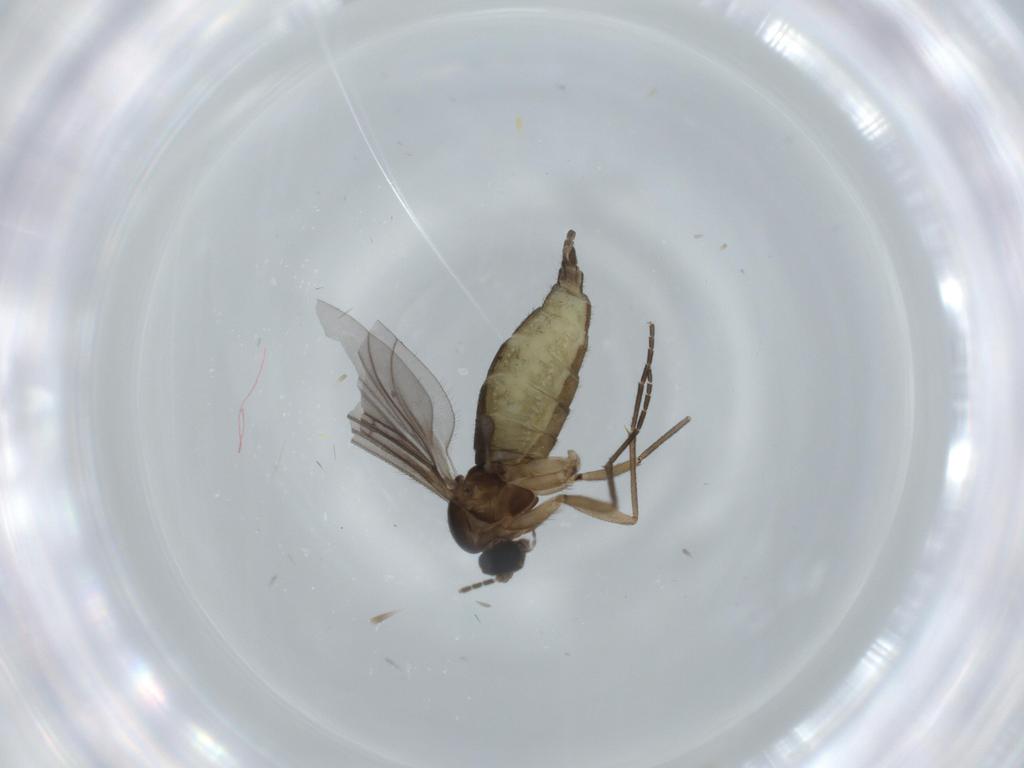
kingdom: Animalia
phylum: Arthropoda
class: Insecta
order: Diptera
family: Sciaridae
